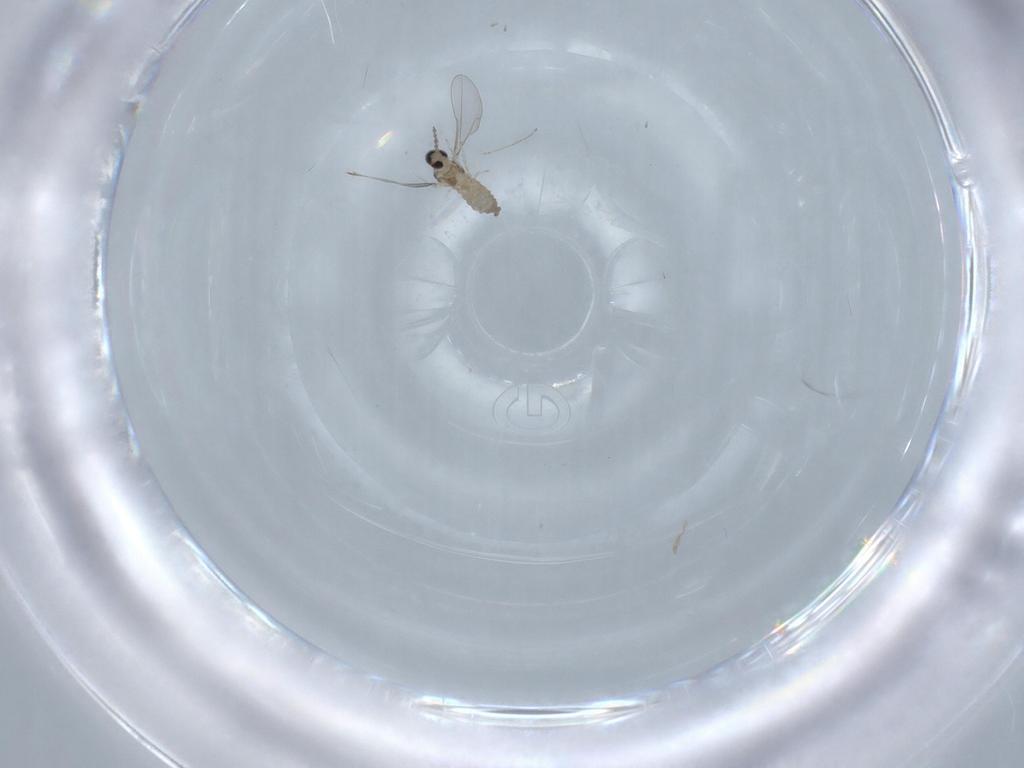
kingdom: Animalia
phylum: Arthropoda
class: Insecta
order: Diptera
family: Cecidomyiidae
